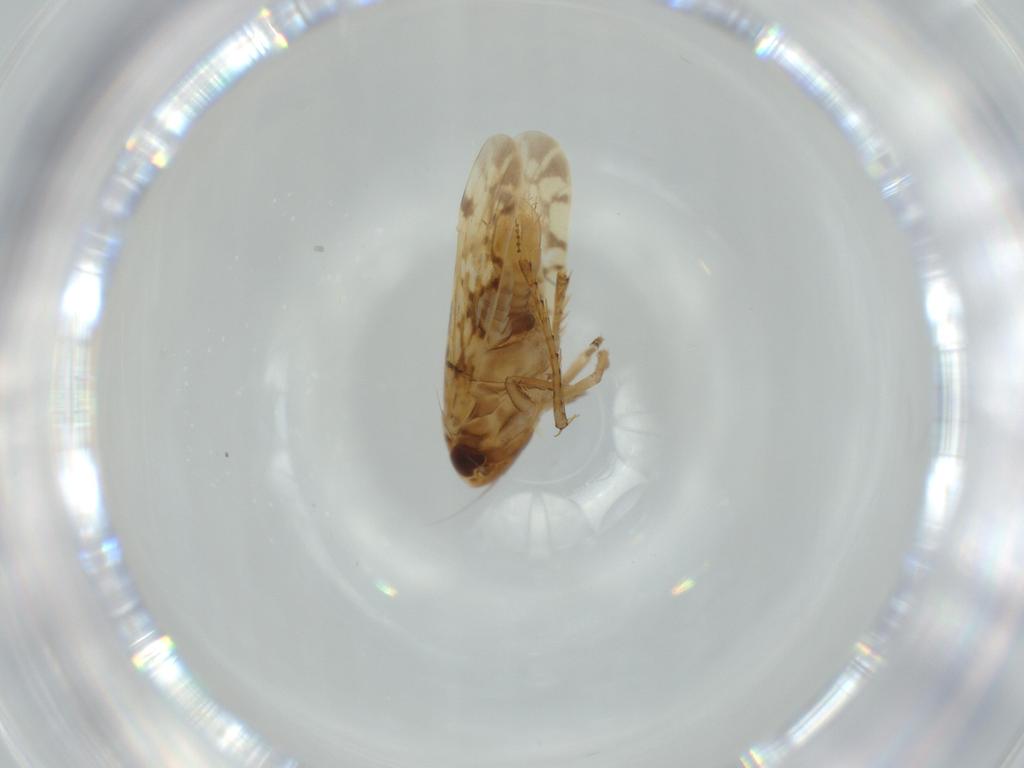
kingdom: Animalia
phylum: Arthropoda
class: Insecta
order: Hemiptera
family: Cicadellidae
